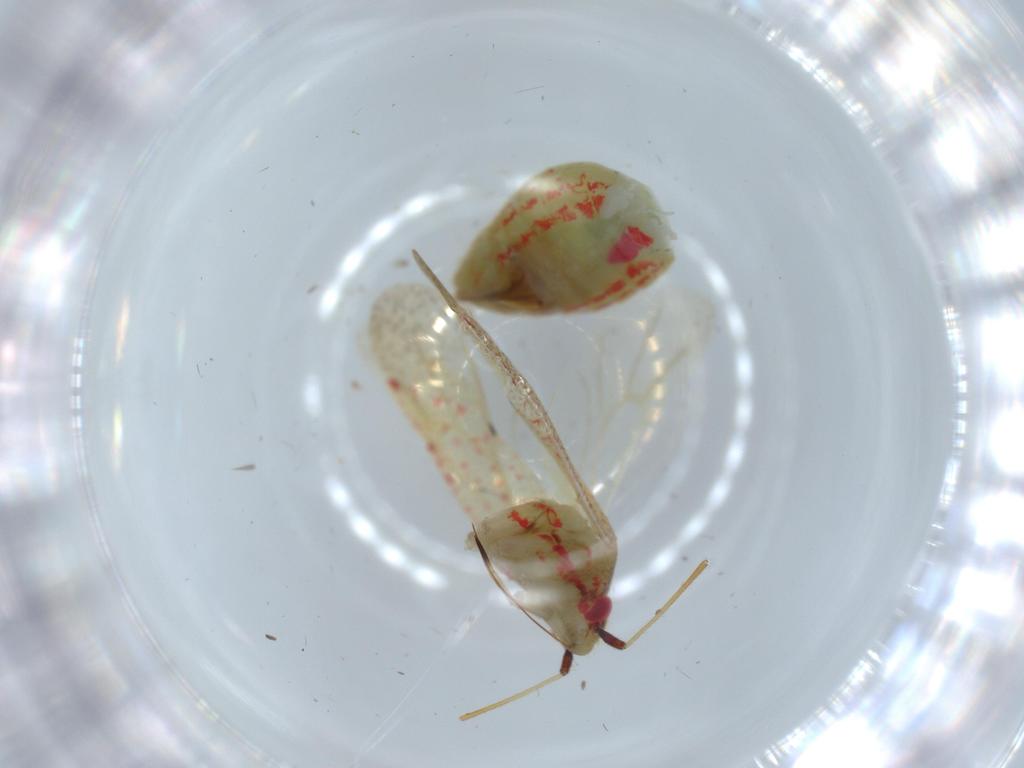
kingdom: Animalia
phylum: Arthropoda
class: Insecta
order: Hemiptera
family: Miridae
